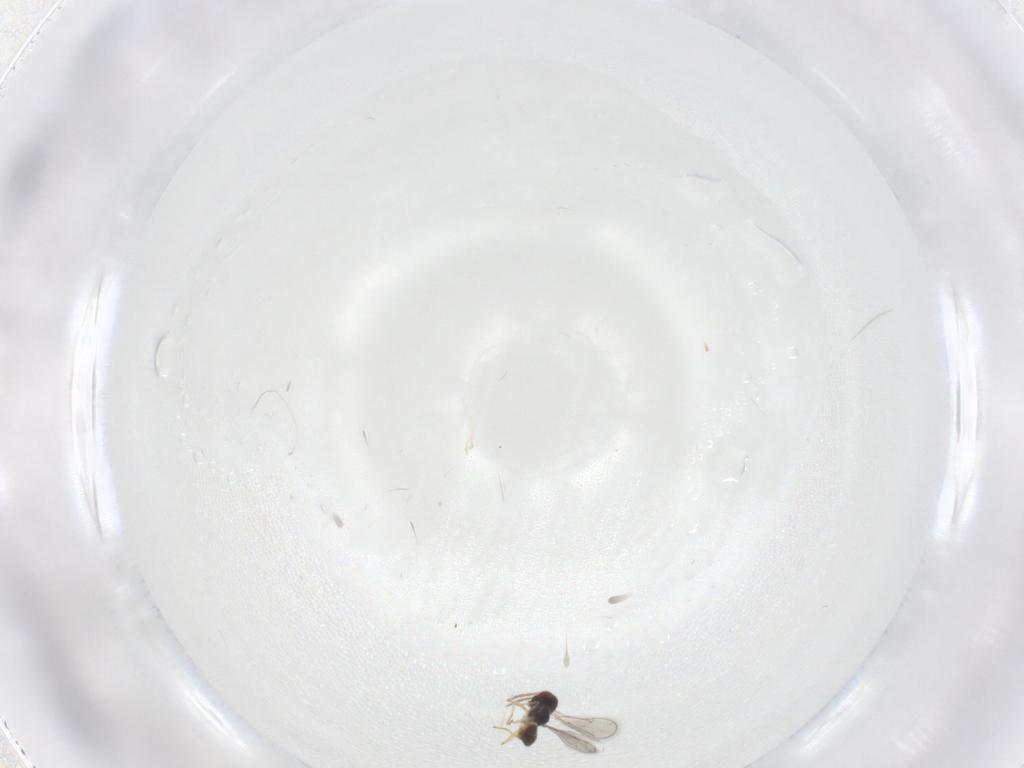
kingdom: Animalia
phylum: Arthropoda
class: Insecta
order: Hymenoptera
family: Eulophidae
